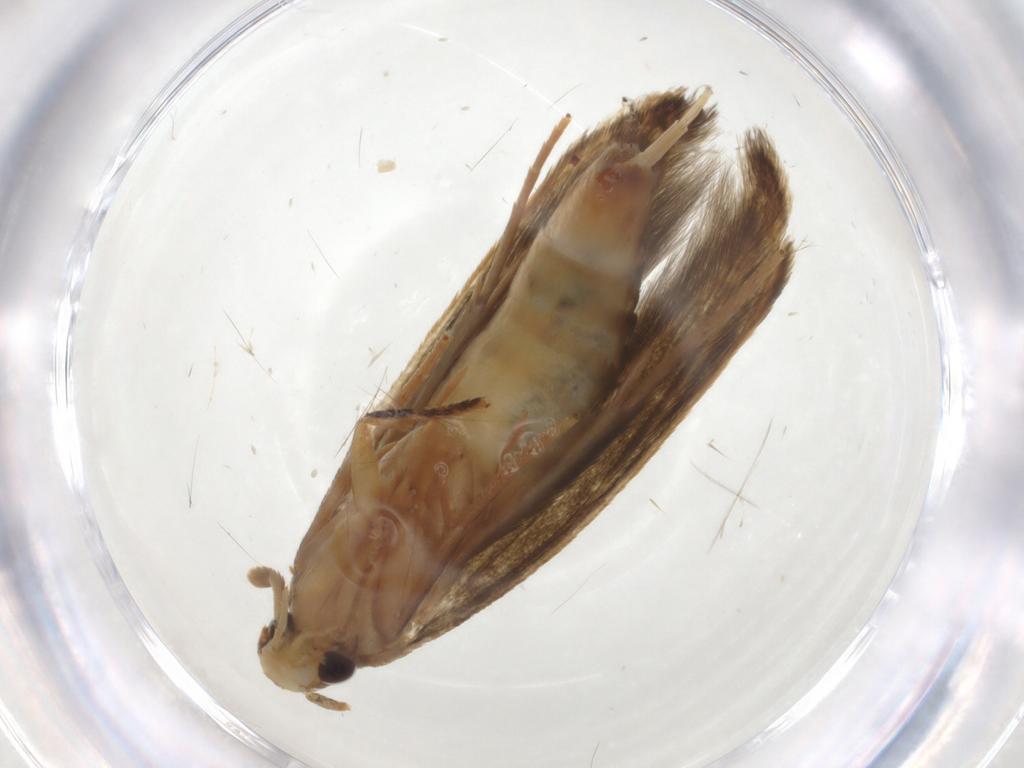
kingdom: Animalia
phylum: Arthropoda
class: Insecta
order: Lepidoptera
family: Tineidae
